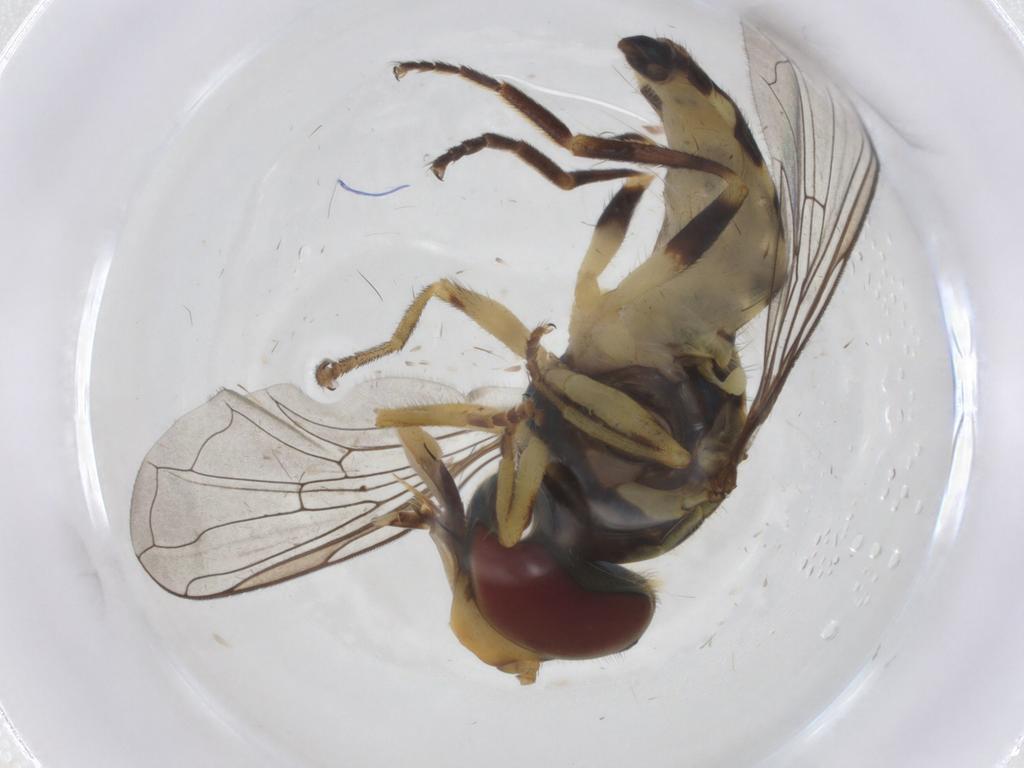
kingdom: Animalia
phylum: Arthropoda
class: Insecta
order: Diptera
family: Syrphidae
